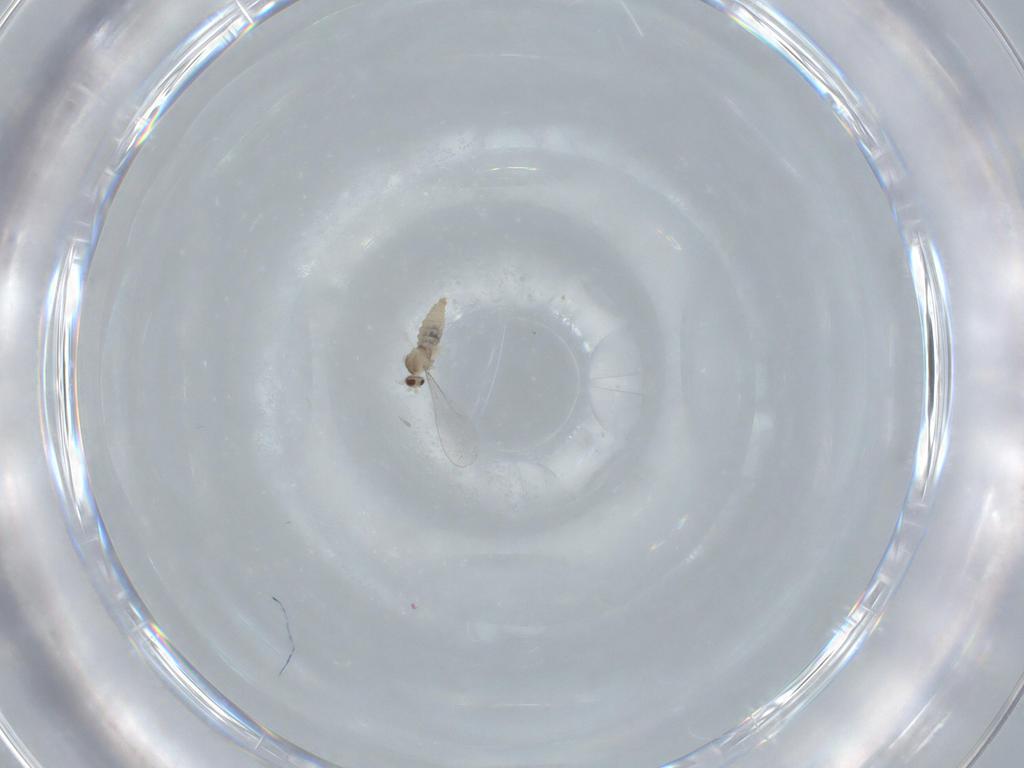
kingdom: Animalia
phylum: Arthropoda
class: Insecta
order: Diptera
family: Cecidomyiidae
